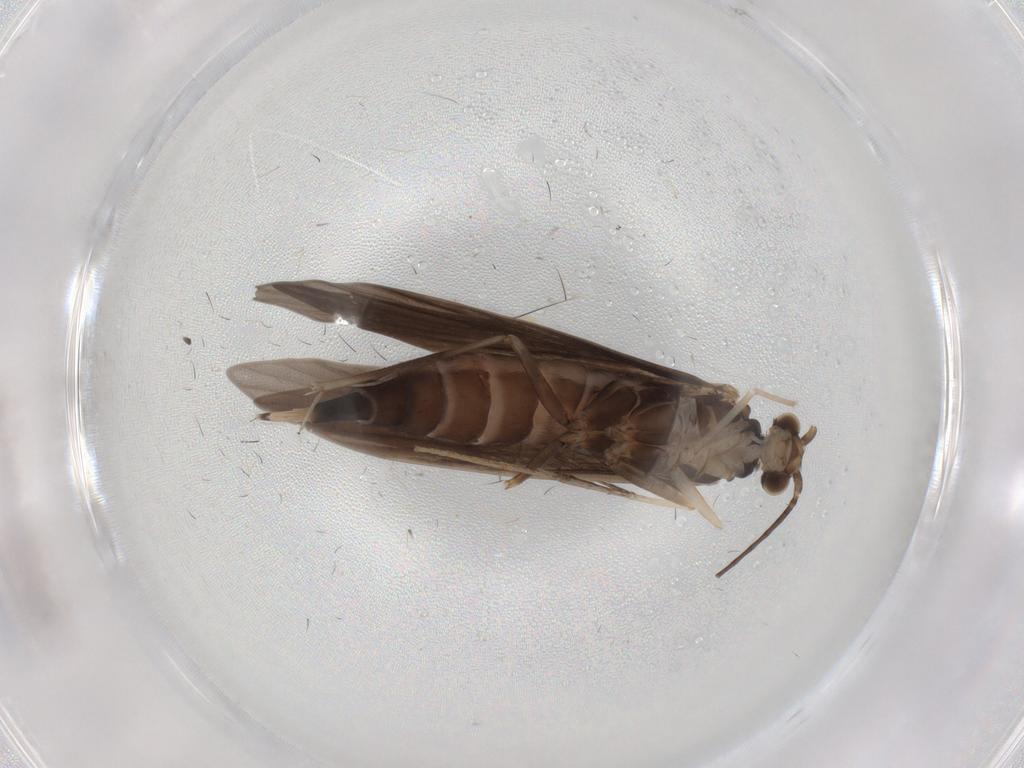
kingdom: Animalia
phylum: Arthropoda
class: Insecta
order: Trichoptera
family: Xiphocentronidae
